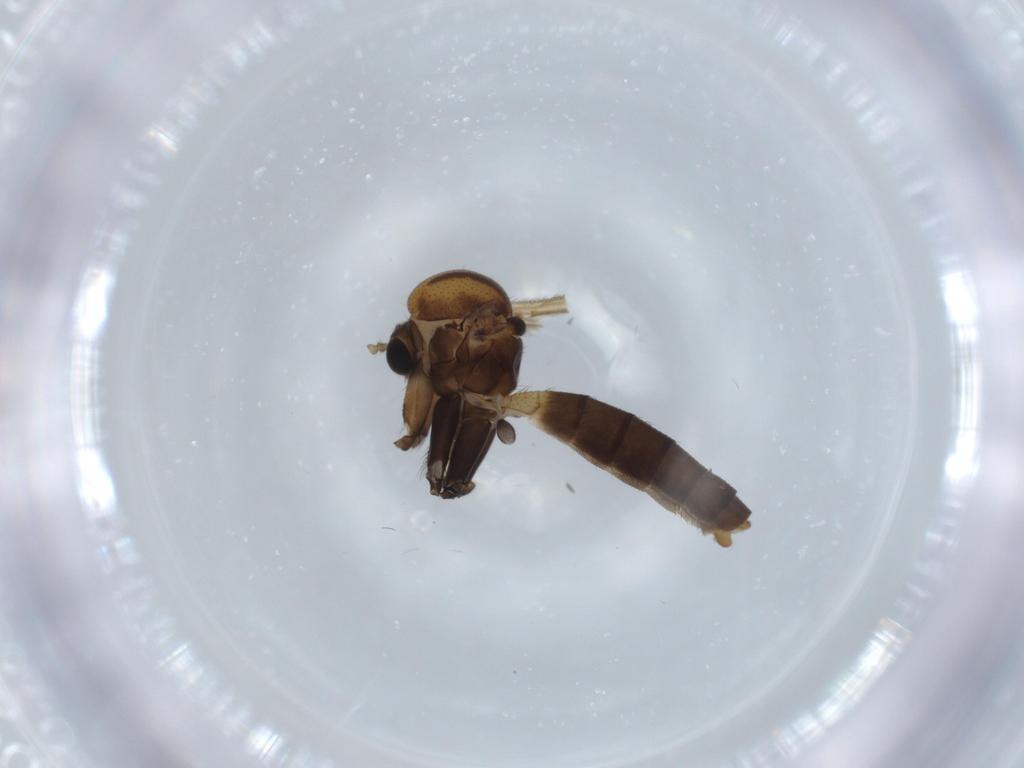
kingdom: Animalia
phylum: Arthropoda
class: Insecta
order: Diptera
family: Mycetophilidae
